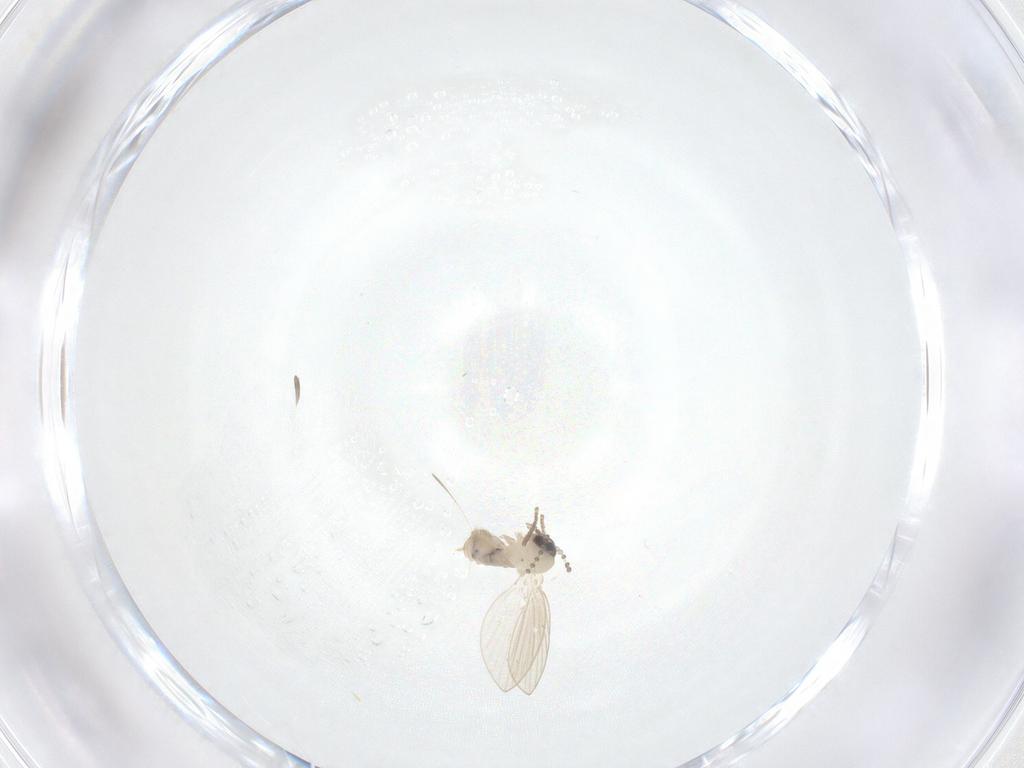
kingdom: Animalia
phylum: Arthropoda
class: Insecta
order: Diptera
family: Psychodidae
